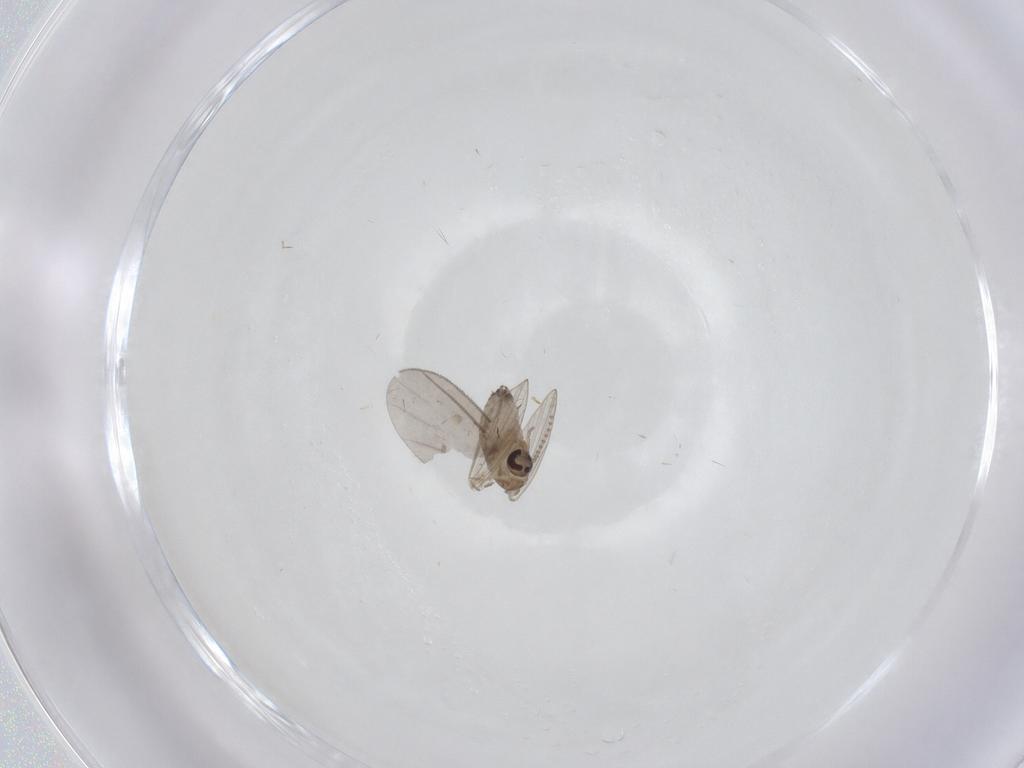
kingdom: Animalia
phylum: Arthropoda
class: Insecta
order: Diptera
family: Psychodidae
